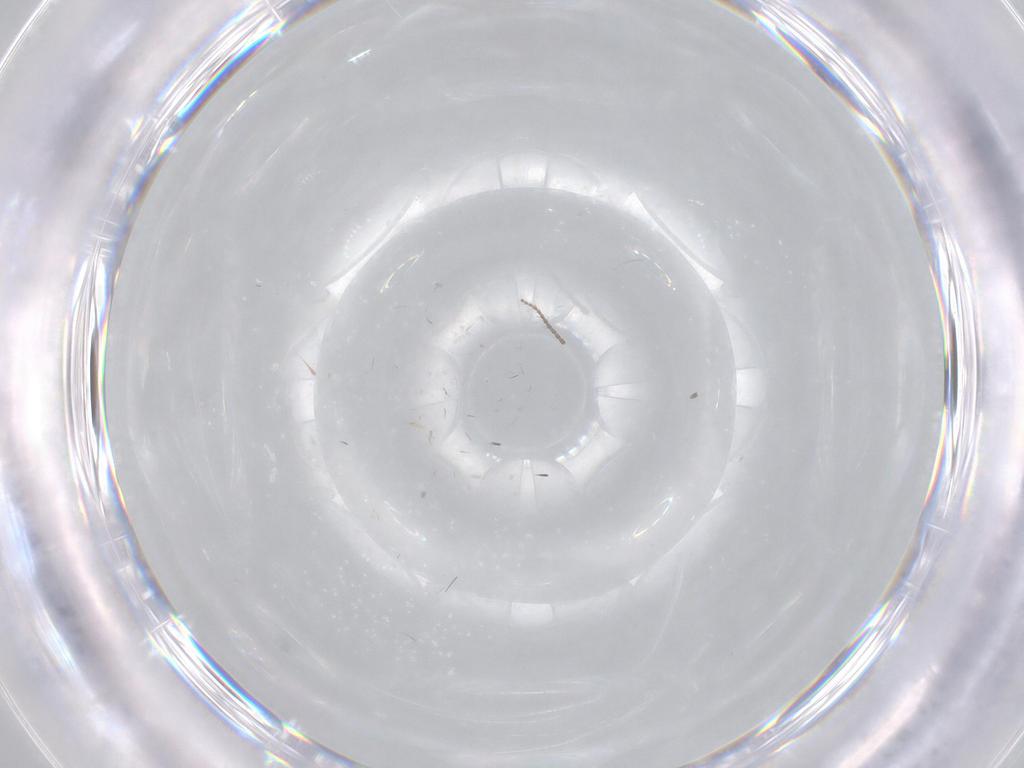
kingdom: Animalia
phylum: Arthropoda
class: Insecta
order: Diptera
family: Limoniidae
